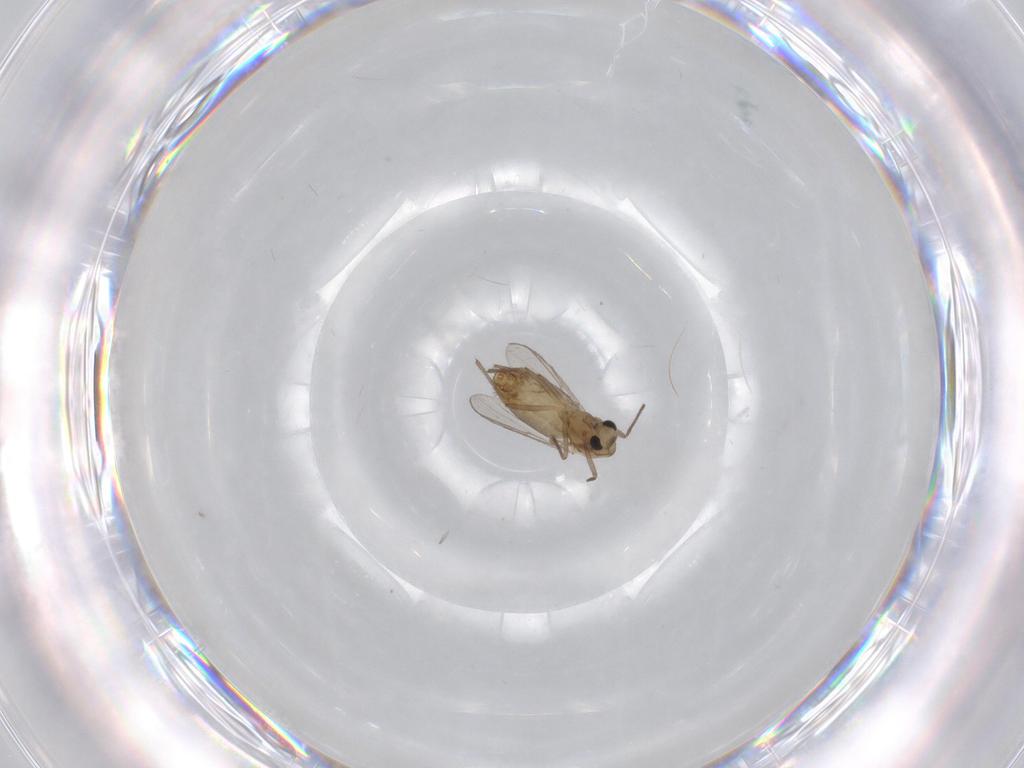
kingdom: Animalia
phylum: Arthropoda
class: Insecta
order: Diptera
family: Chironomidae
